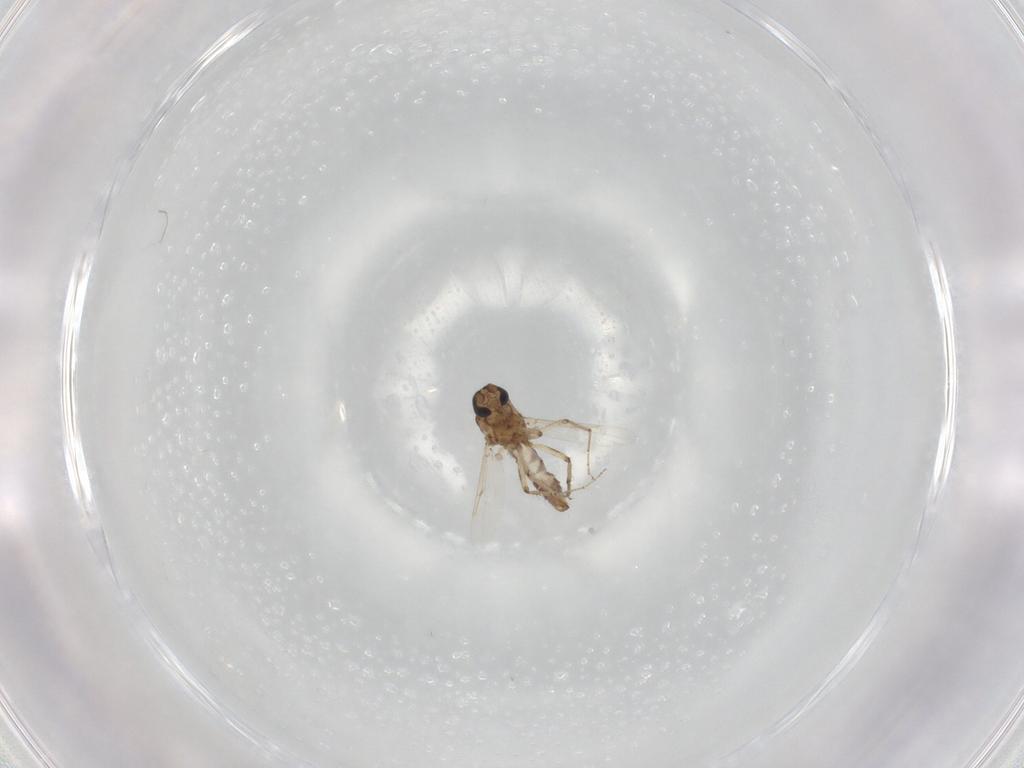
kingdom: Animalia
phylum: Arthropoda
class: Insecta
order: Diptera
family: Ceratopogonidae
